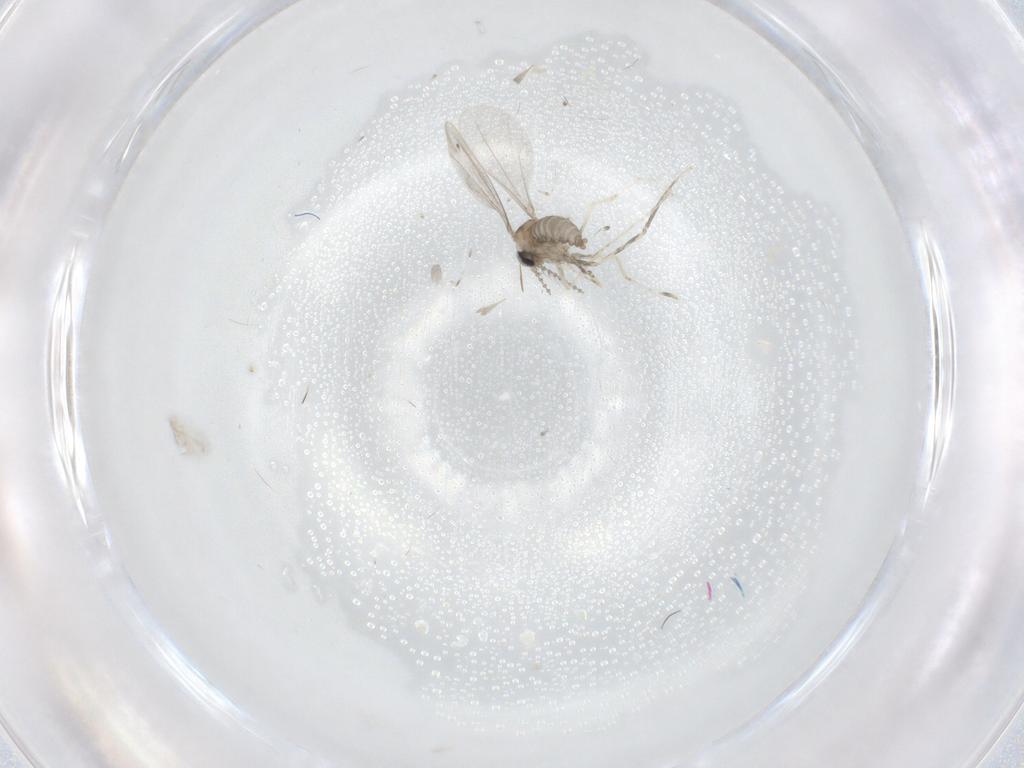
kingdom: Animalia
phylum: Arthropoda
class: Insecta
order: Diptera
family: Cecidomyiidae
